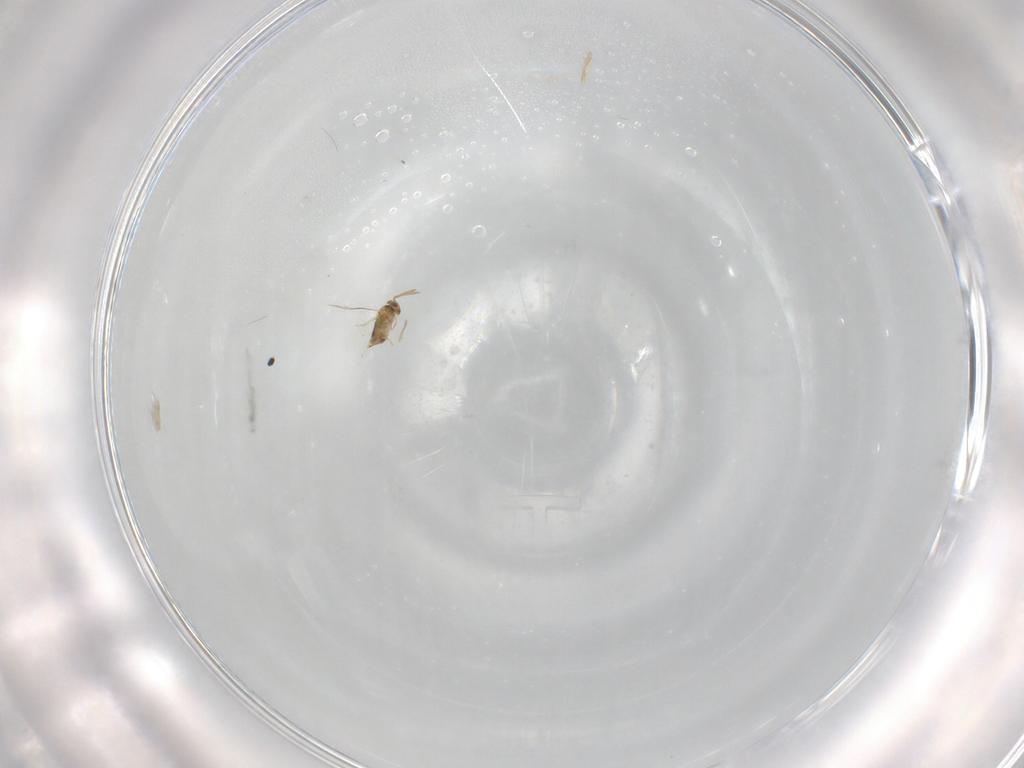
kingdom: Animalia
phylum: Arthropoda
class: Insecta
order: Hymenoptera
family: Aphelinidae
